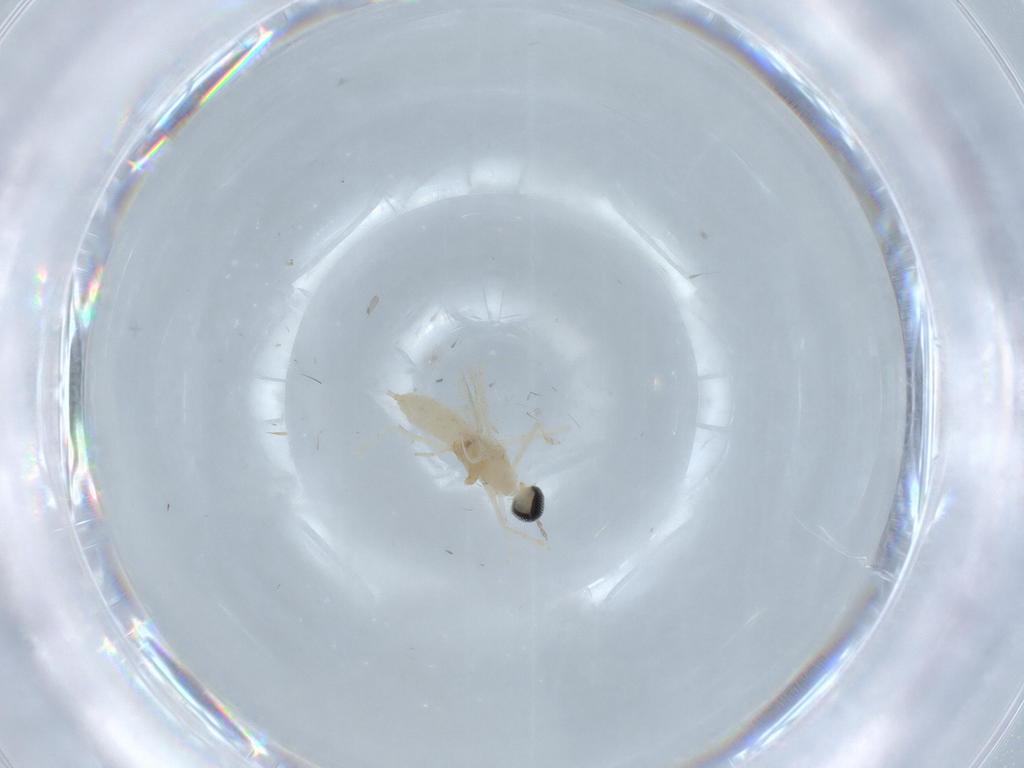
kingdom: Animalia
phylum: Arthropoda
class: Insecta
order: Diptera
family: Cecidomyiidae
